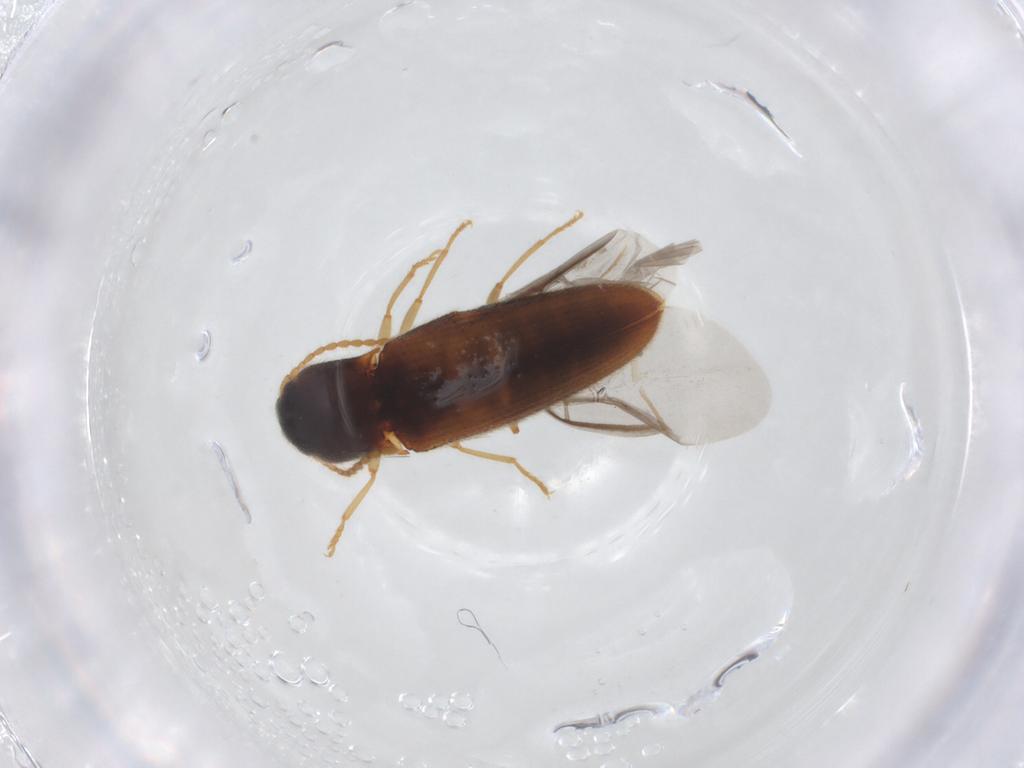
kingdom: Animalia
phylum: Arthropoda
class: Insecta
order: Coleoptera
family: Elateridae
